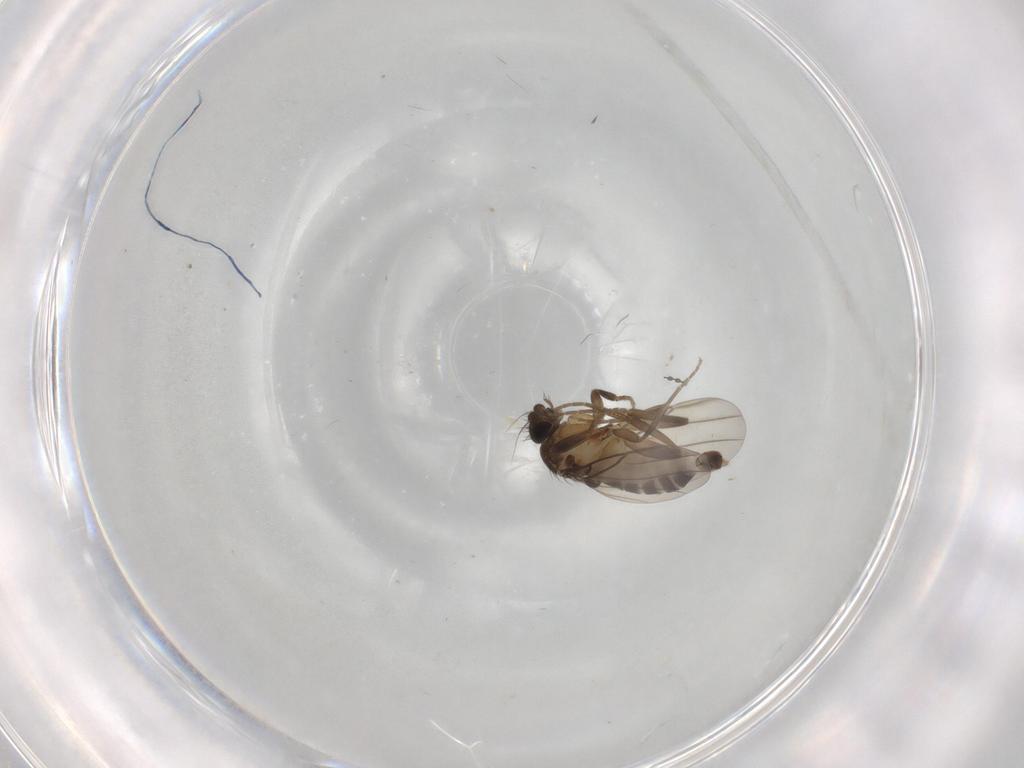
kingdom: Animalia
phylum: Arthropoda
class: Insecta
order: Diptera
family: Phoridae
